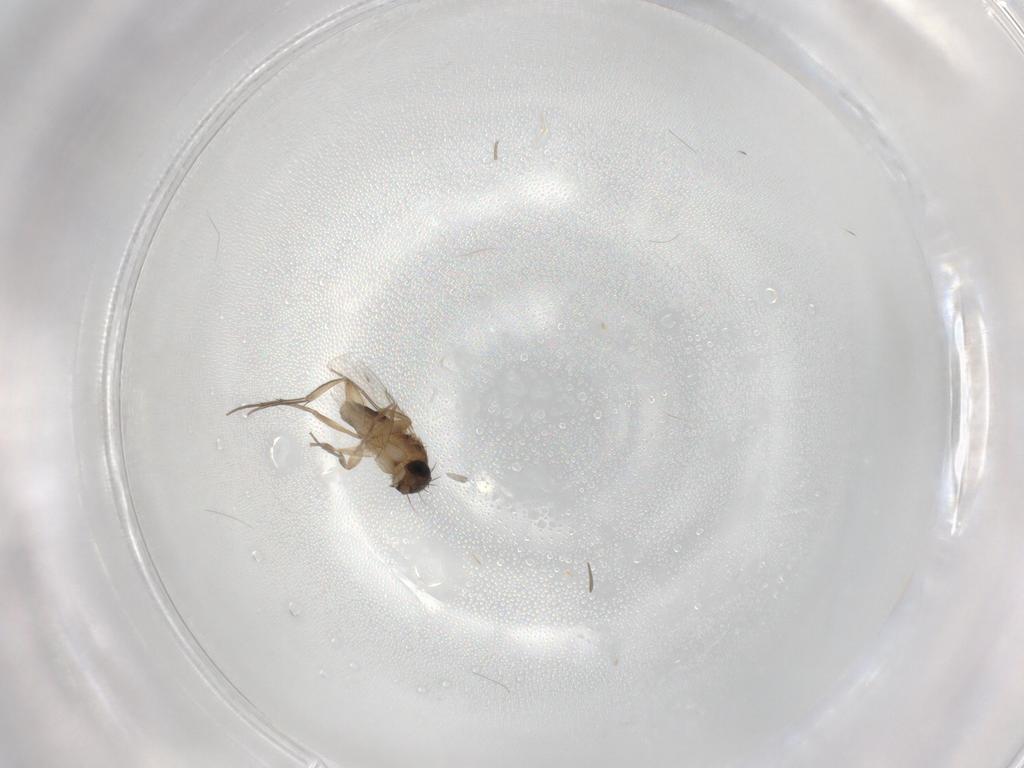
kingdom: Animalia
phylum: Arthropoda
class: Insecta
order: Diptera
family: Phoridae
